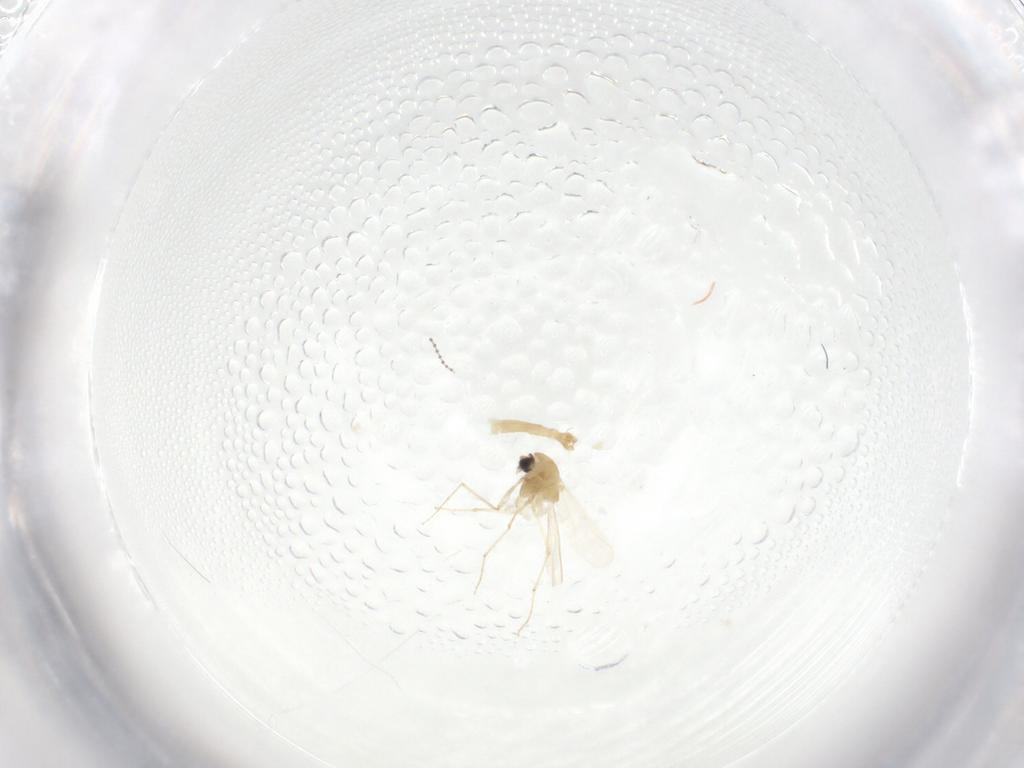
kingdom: Animalia
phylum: Arthropoda
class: Insecta
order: Diptera
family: Chironomidae
